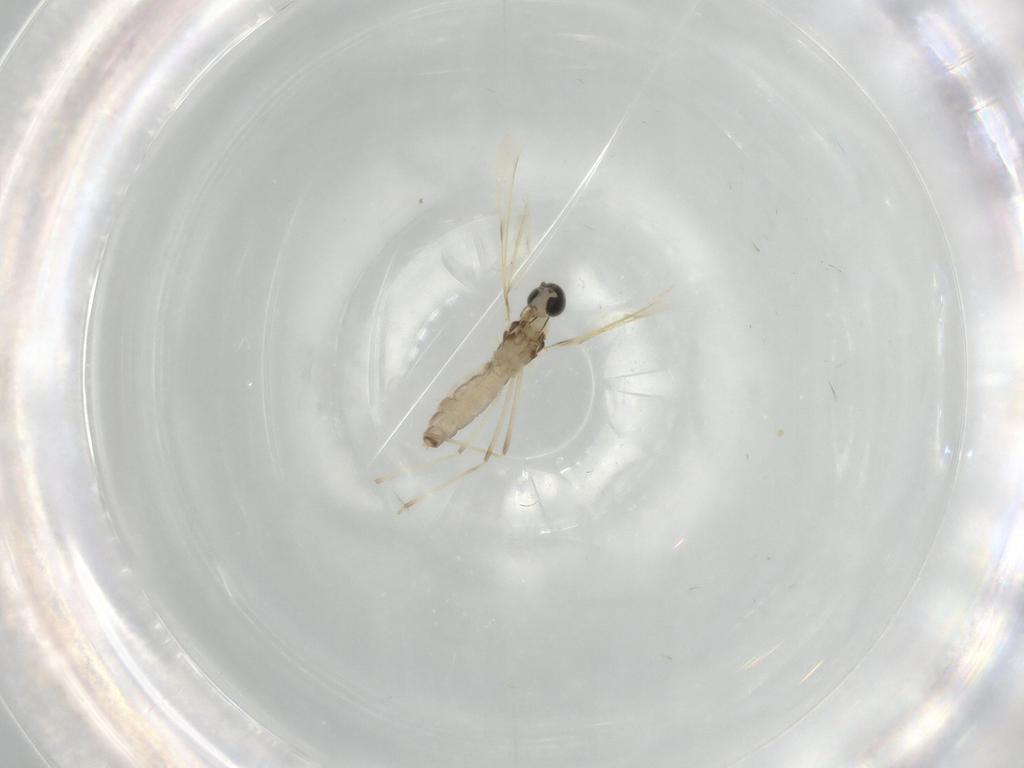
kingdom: Animalia
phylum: Arthropoda
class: Insecta
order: Diptera
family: Cecidomyiidae
